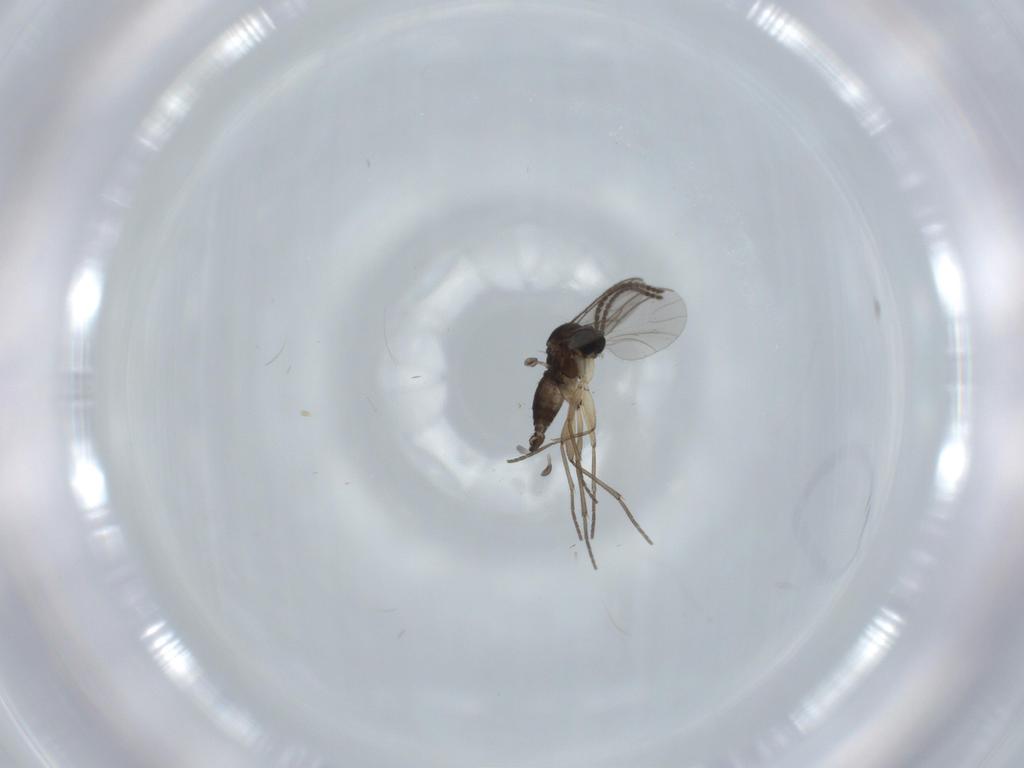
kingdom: Animalia
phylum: Arthropoda
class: Insecta
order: Diptera
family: Sciaridae
